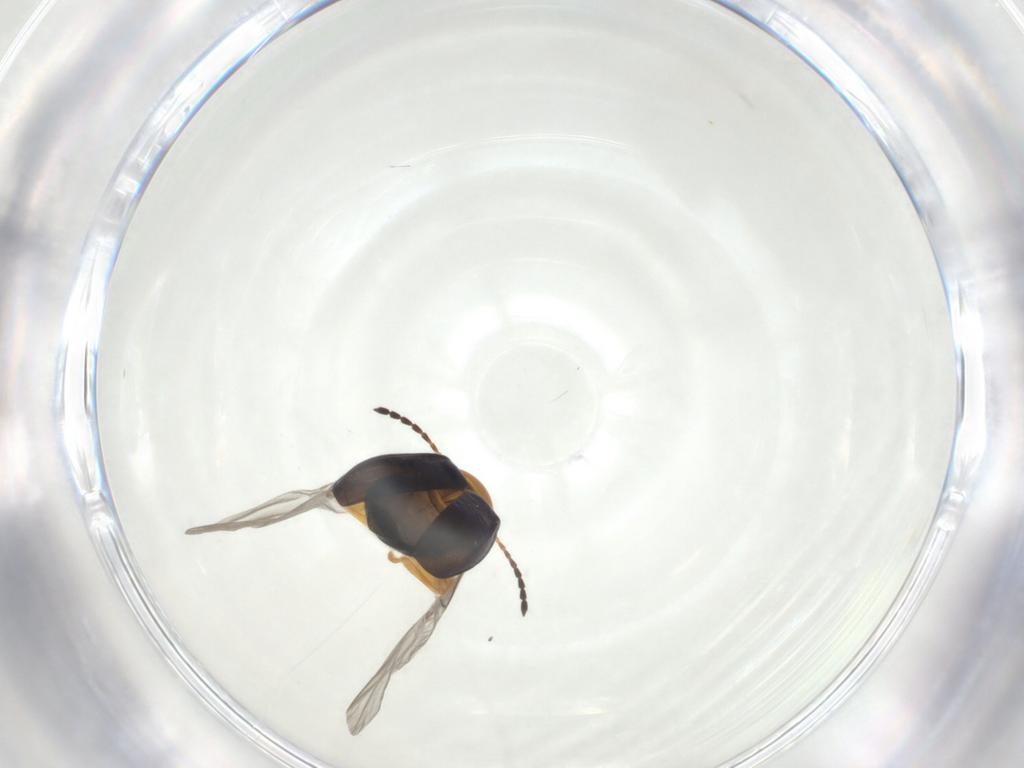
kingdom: Animalia
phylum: Arthropoda
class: Insecta
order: Coleoptera
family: Chrysomelidae
